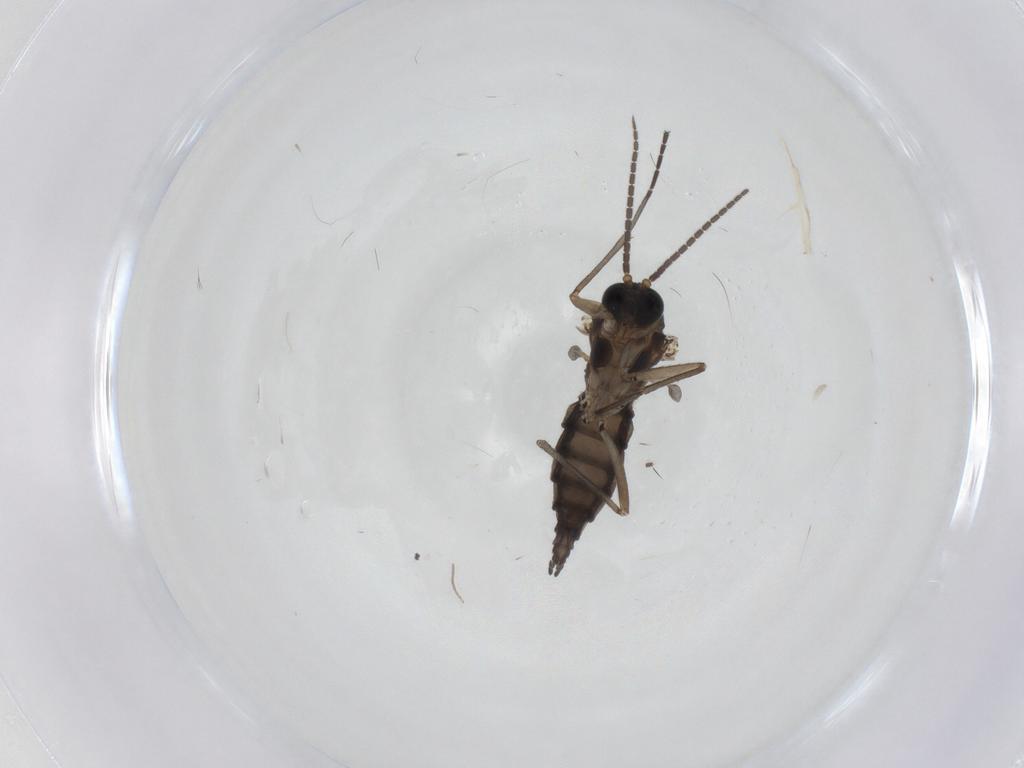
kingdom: Animalia
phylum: Arthropoda
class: Insecta
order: Diptera
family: Sciaridae
